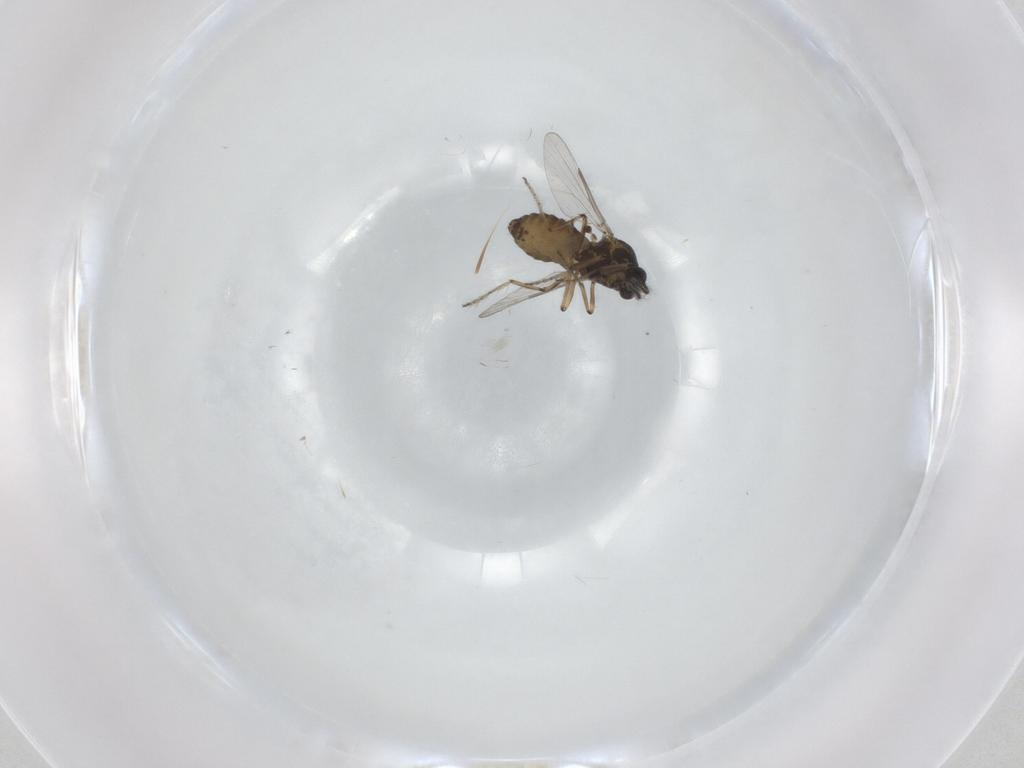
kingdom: Animalia
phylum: Arthropoda
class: Insecta
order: Diptera
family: Ceratopogonidae
